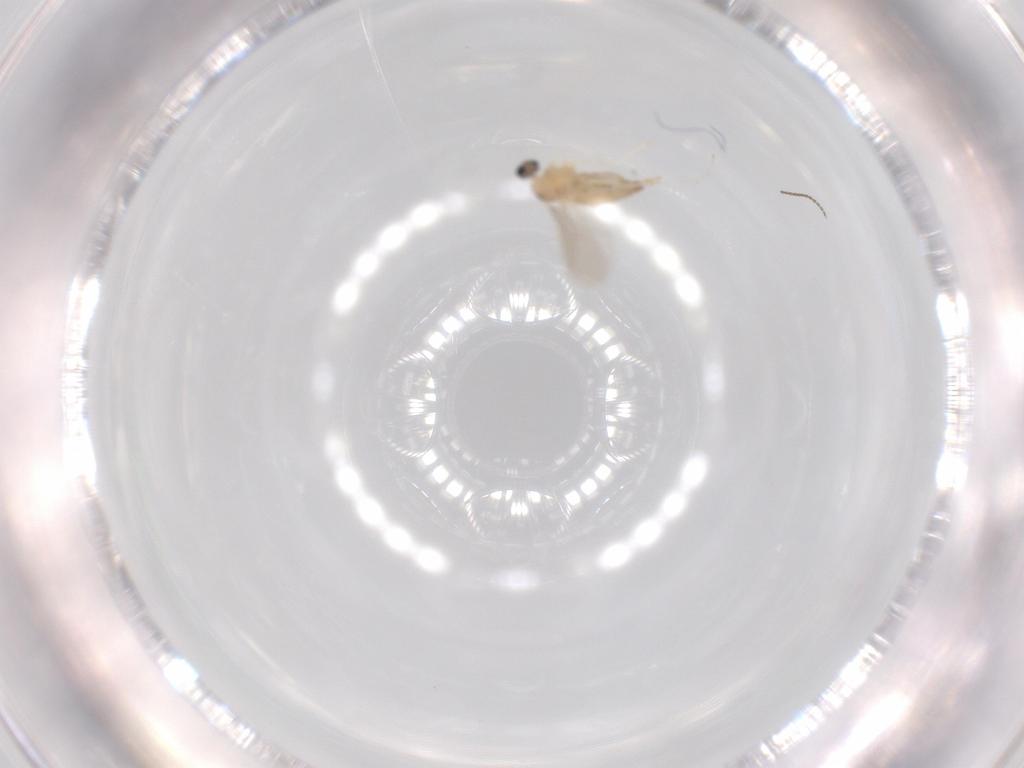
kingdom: Animalia
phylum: Arthropoda
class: Insecta
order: Diptera
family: Cecidomyiidae
